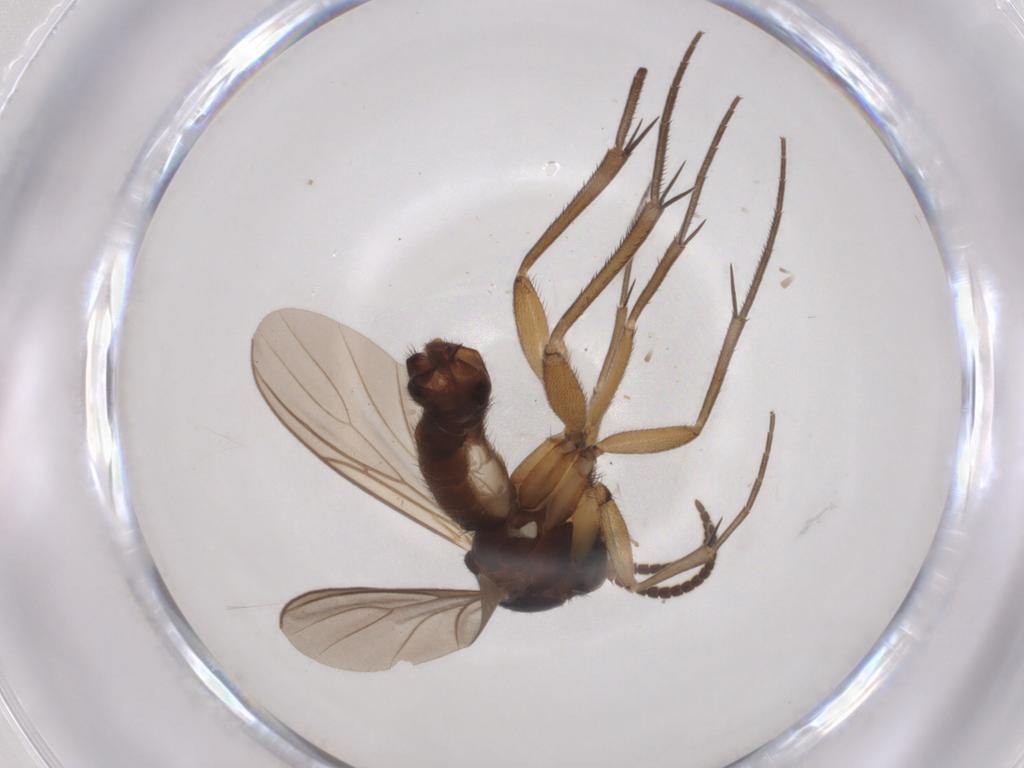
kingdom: Animalia
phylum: Arthropoda
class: Insecta
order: Diptera
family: Mycetophilidae
